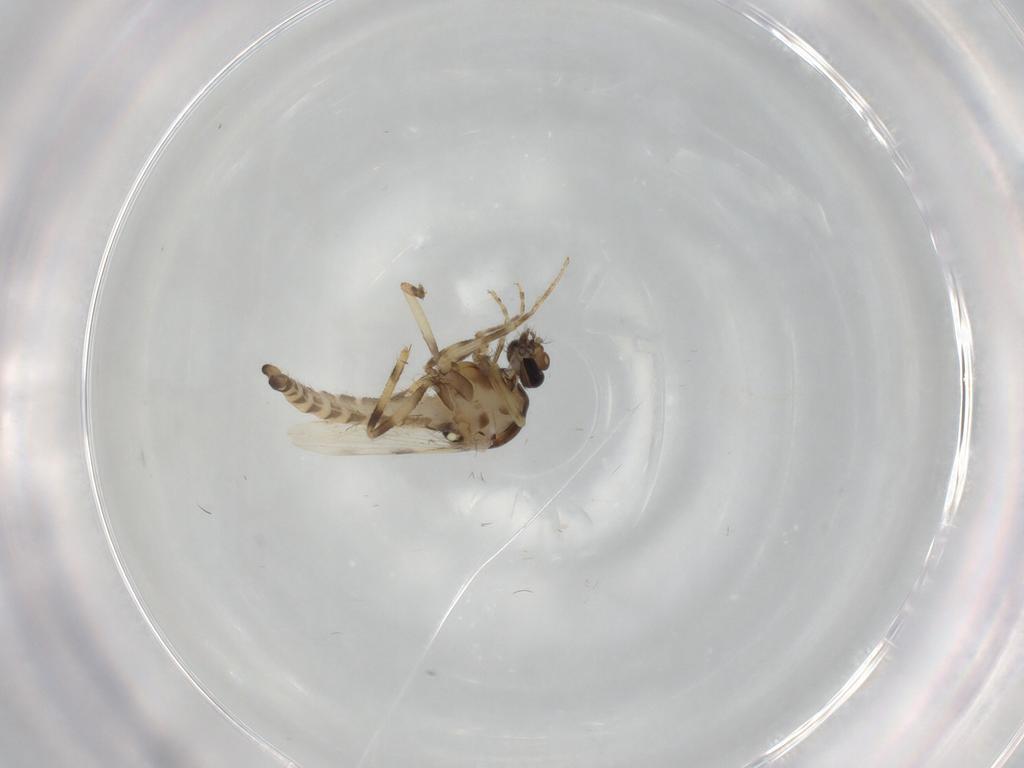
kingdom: Animalia
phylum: Arthropoda
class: Insecta
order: Diptera
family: Ceratopogonidae
